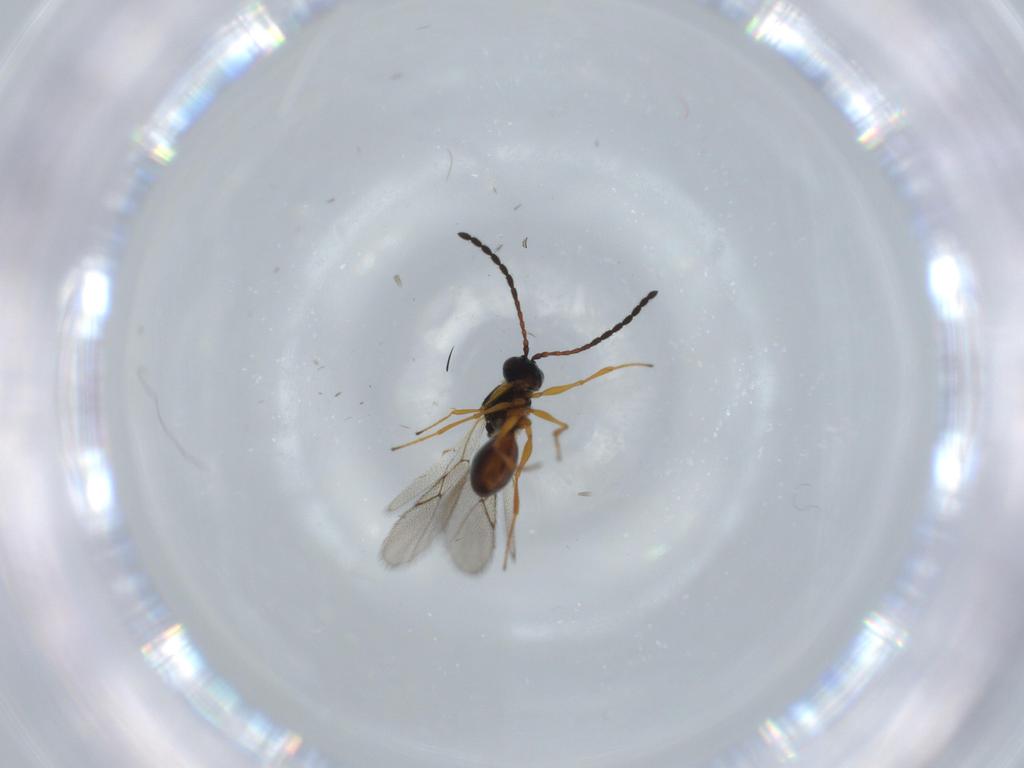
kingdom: Animalia
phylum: Arthropoda
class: Insecta
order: Hymenoptera
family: Figitidae
